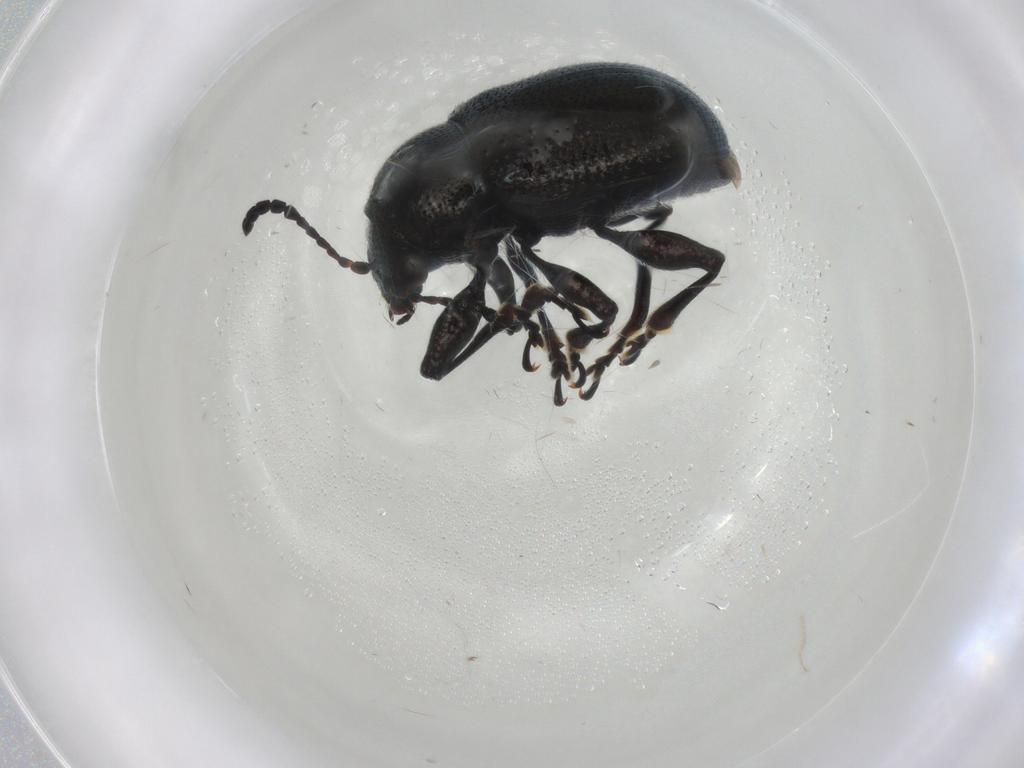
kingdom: Animalia
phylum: Arthropoda
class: Insecta
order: Coleoptera
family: Chrysomelidae
